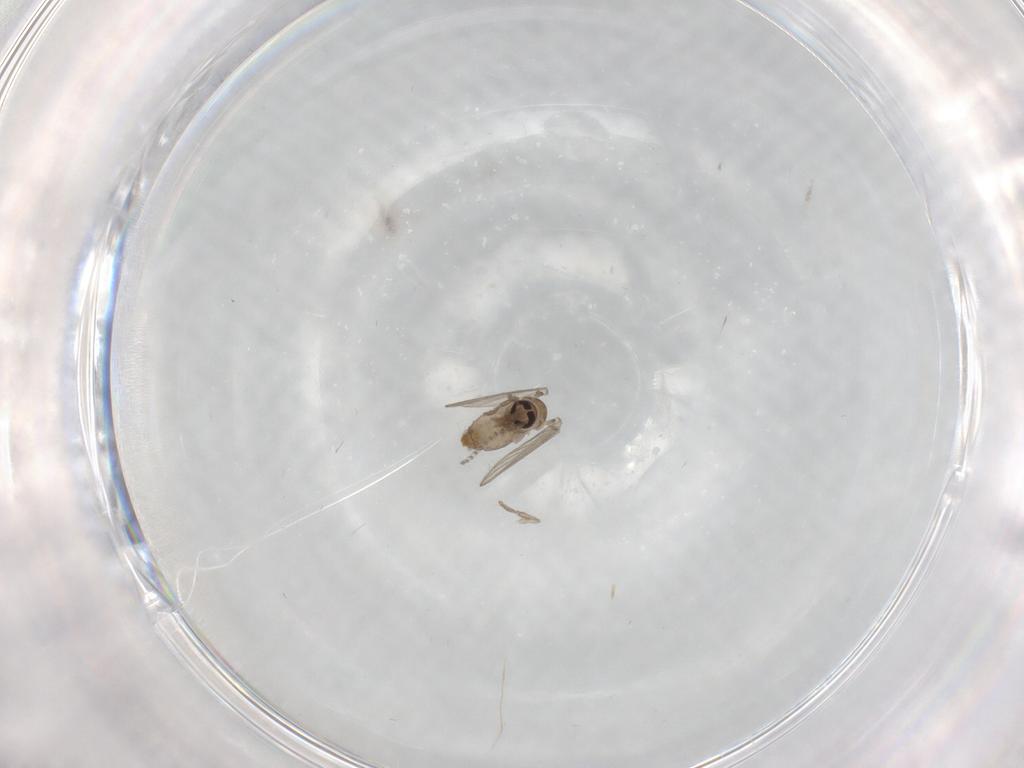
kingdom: Animalia
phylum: Arthropoda
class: Insecta
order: Diptera
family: Psychodidae
